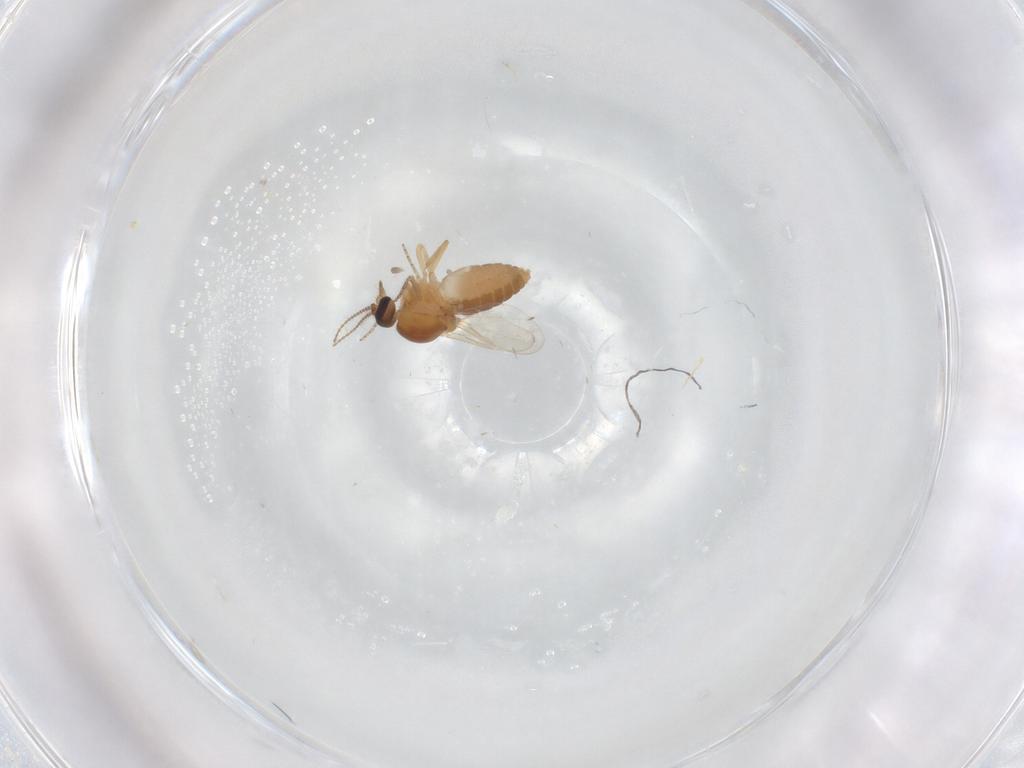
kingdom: Animalia
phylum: Arthropoda
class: Insecta
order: Diptera
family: Ceratopogonidae
